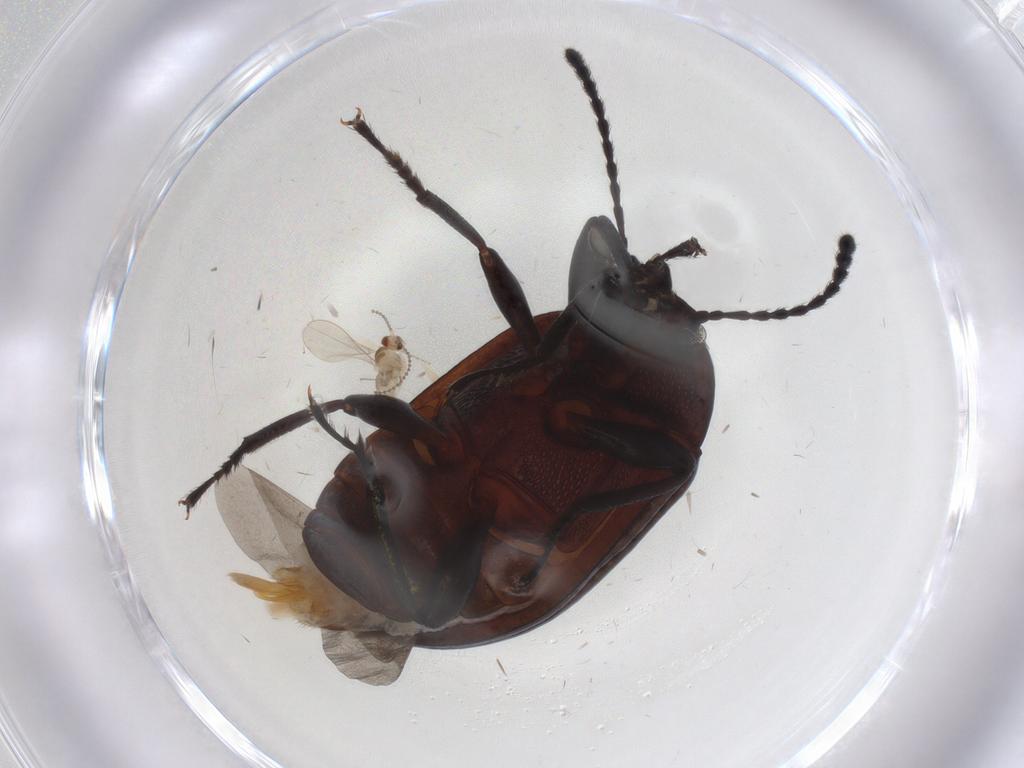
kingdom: Animalia
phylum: Arthropoda
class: Insecta
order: Diptera
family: Cecidomyiidae
